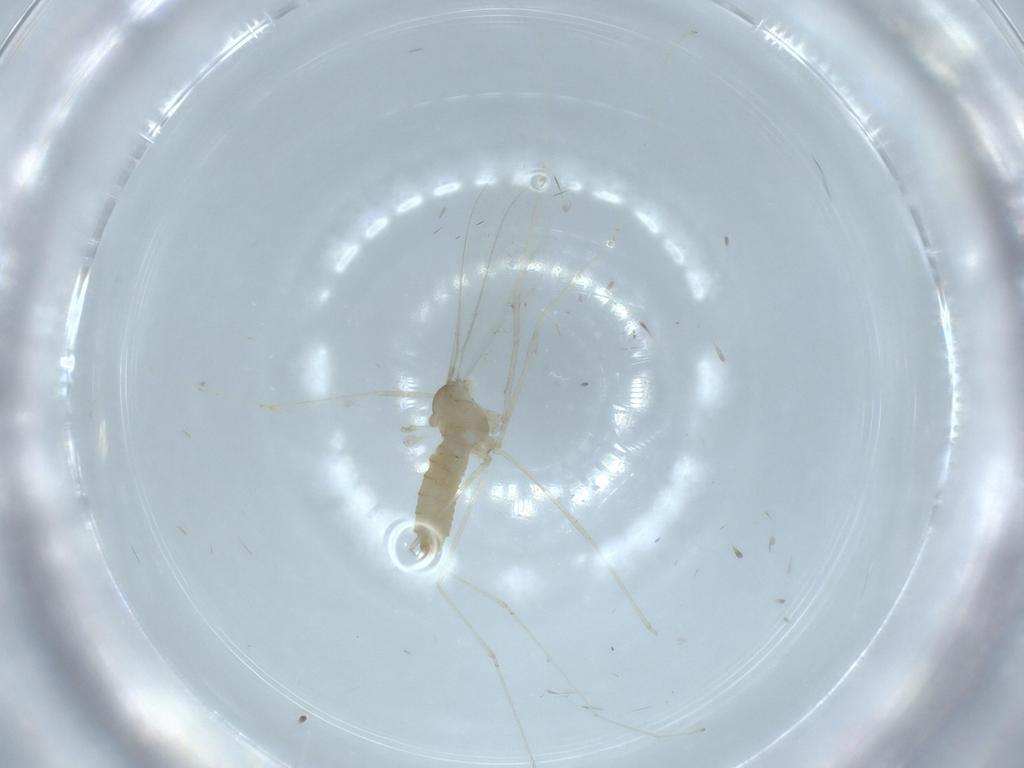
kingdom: Animalia
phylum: Arthropoda
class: Insecta
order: Diptera
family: Cecidomyiidae
